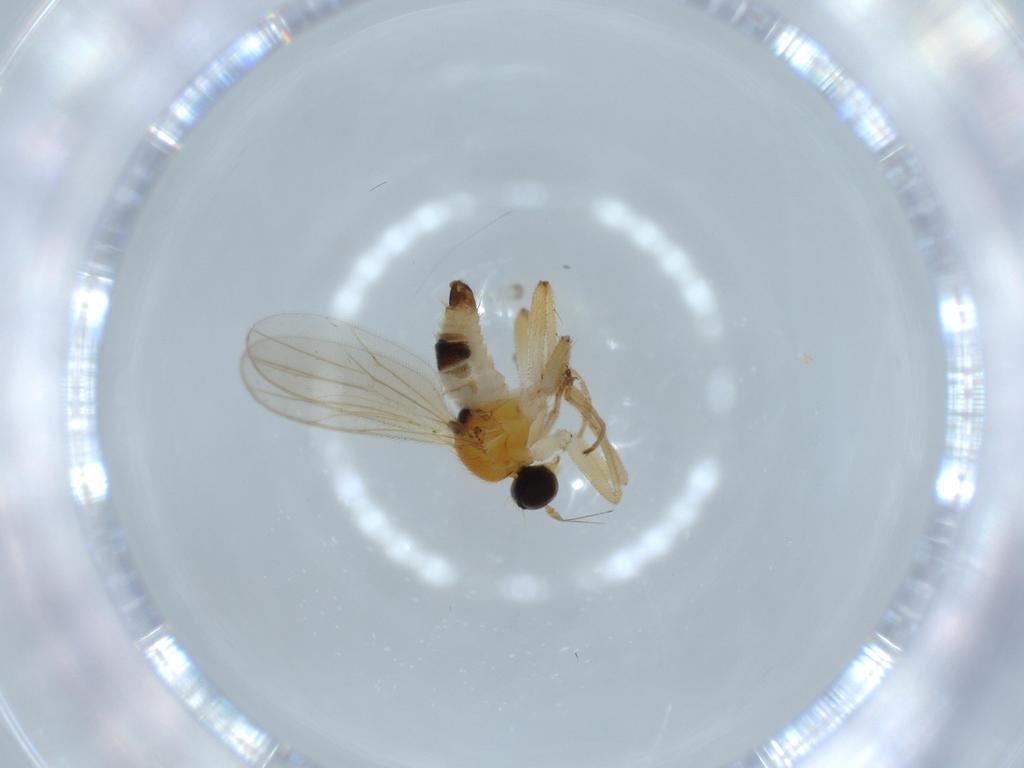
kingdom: Animalia
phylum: Arthropoda
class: Insecta
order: Diptera
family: Hybotidae
